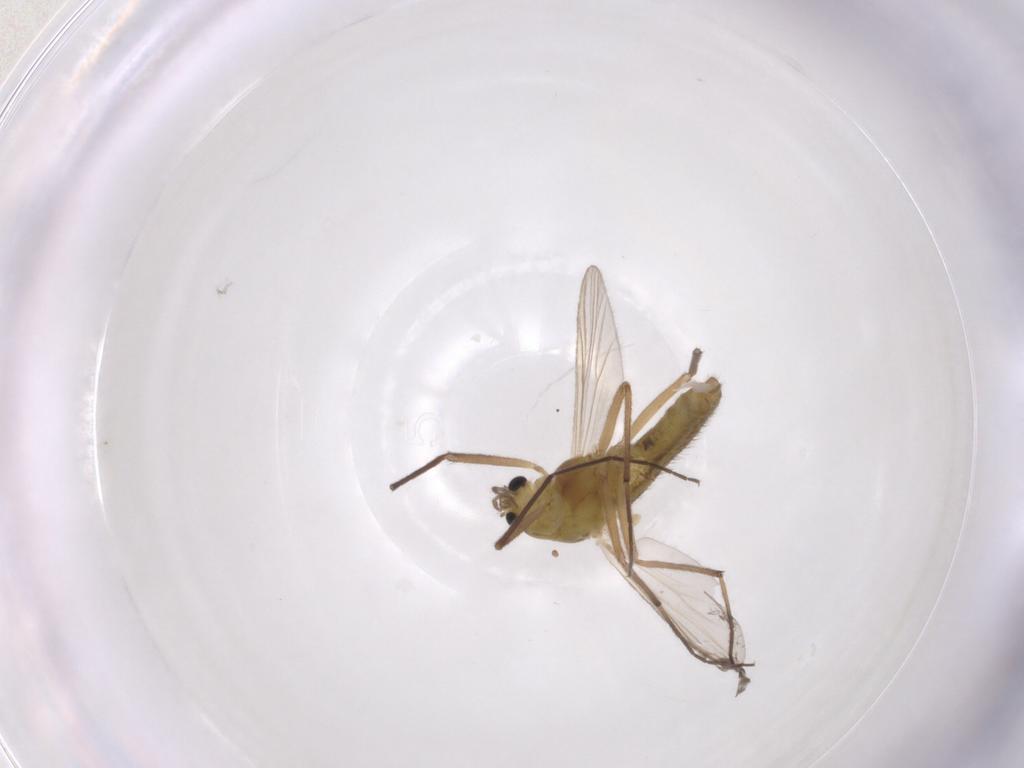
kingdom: Animalia
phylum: Arthropoda
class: Insecta
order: Diptera
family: Chironomidae
